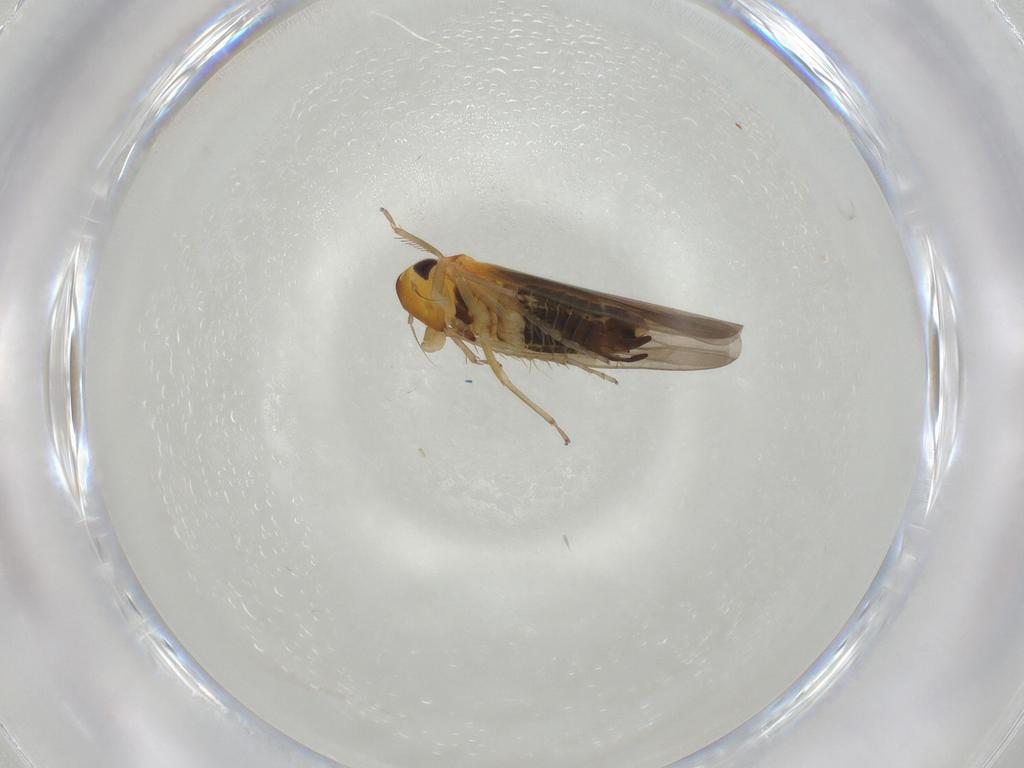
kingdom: Animalia
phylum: Arthropoda
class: Insecta
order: Hemiptera
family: Cicadellidae
